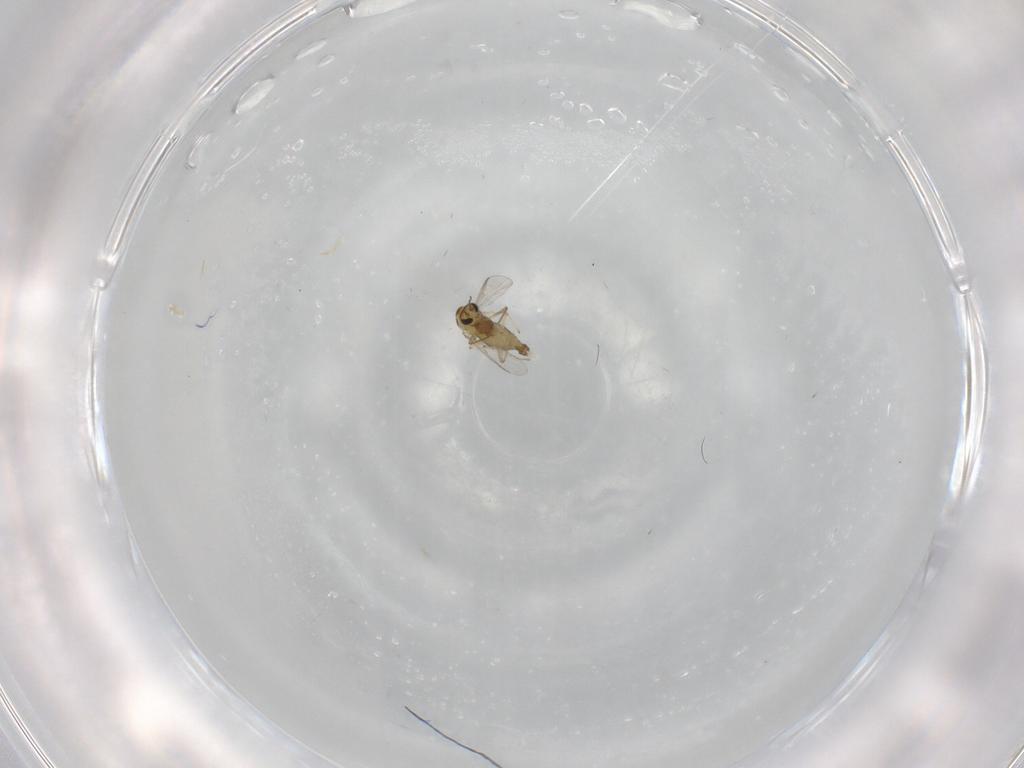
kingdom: Animalia
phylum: Arthropoda
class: Insecta
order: Diptera
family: Chironomidae
